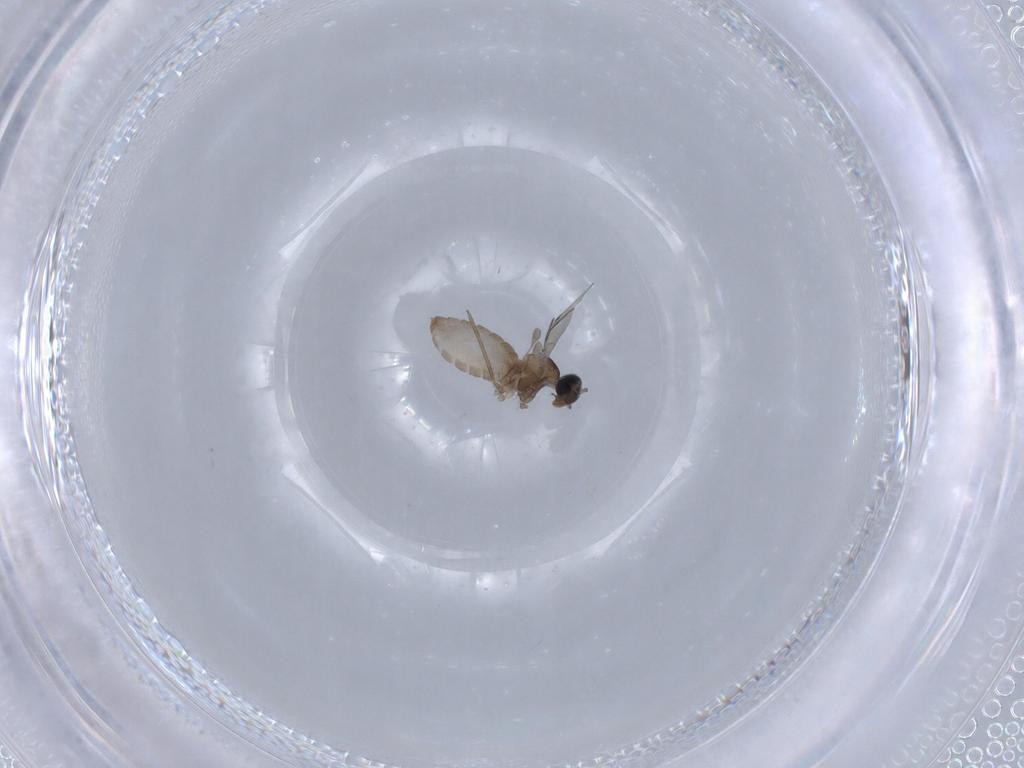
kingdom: Animalia
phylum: Arthropoda
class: Insecta
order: Diptera
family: Cecidomyiidae
